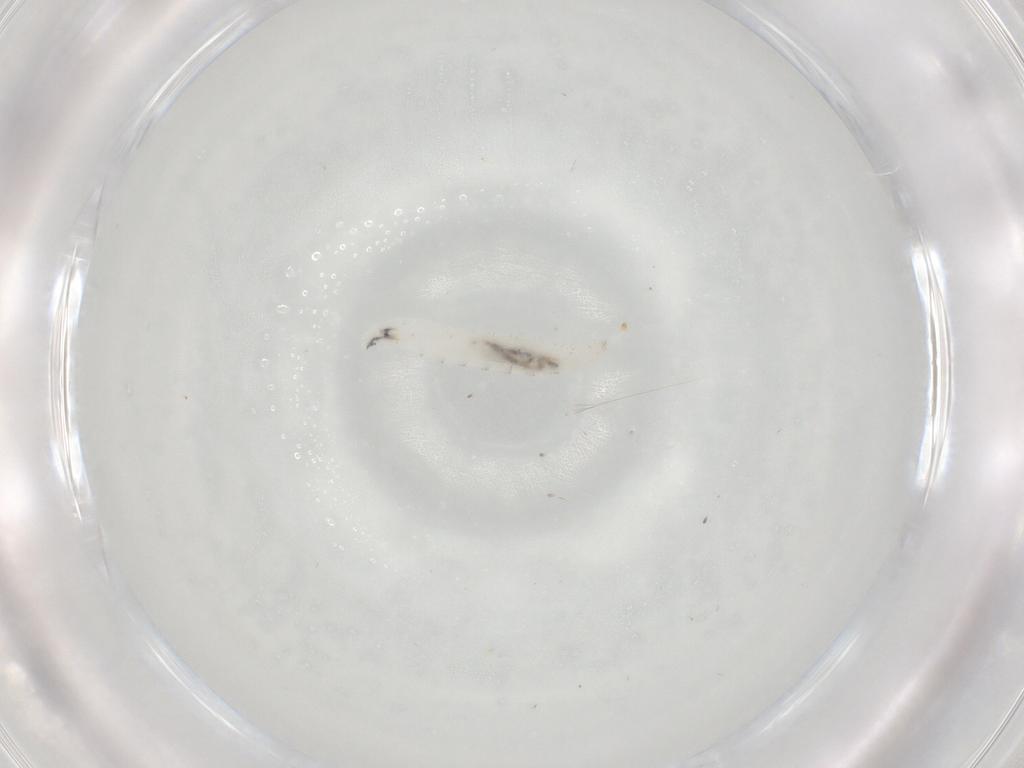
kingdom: Animalia
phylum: Arthropoda
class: Insecta
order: Diptera
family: Drosophilidae
